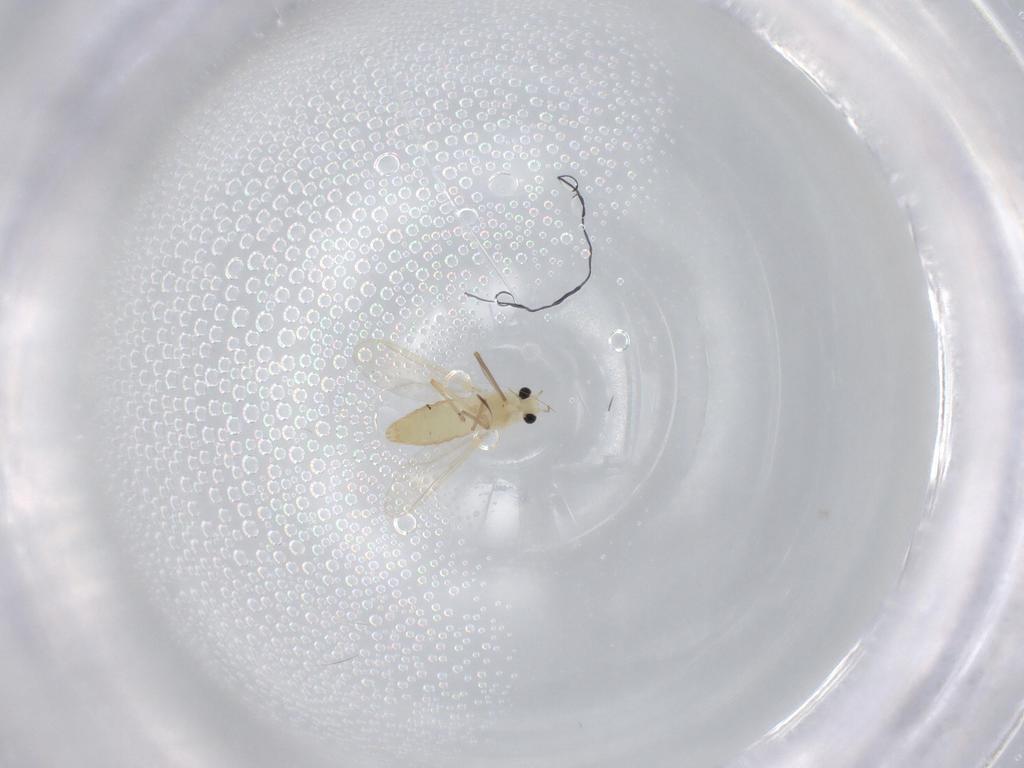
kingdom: Animalia
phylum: Arthropoda
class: Insecta
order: Diptera
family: Chironomidae
